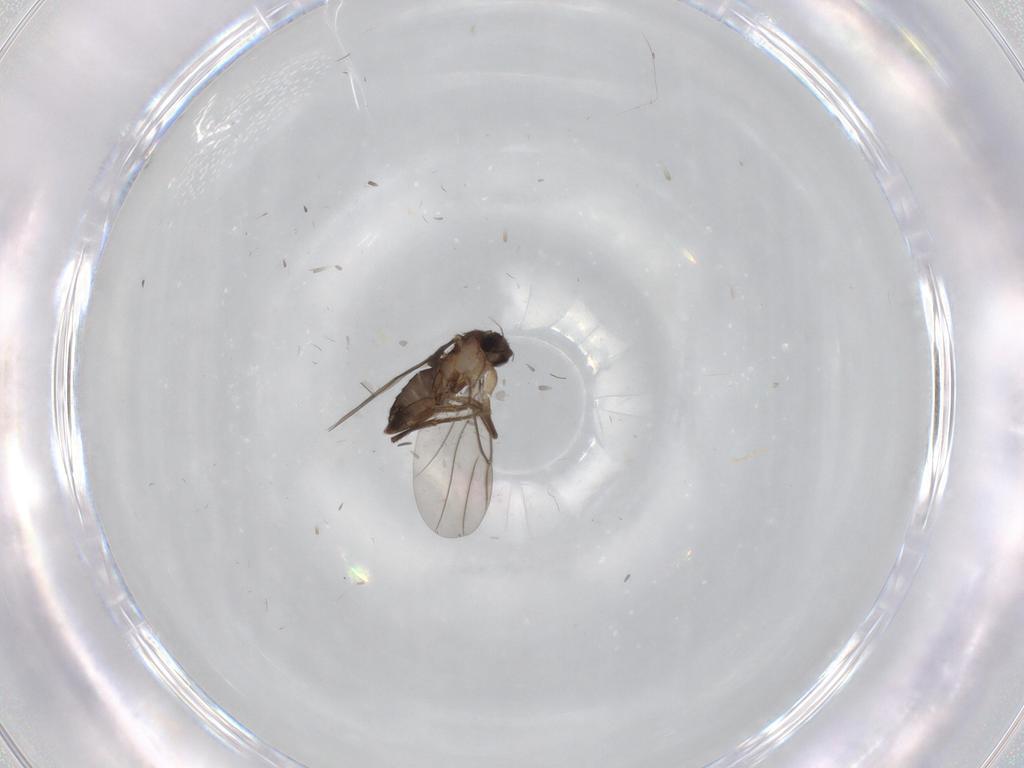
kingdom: Animalia
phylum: Arthropoda
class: Insecta
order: Diptera
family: Phoridae
